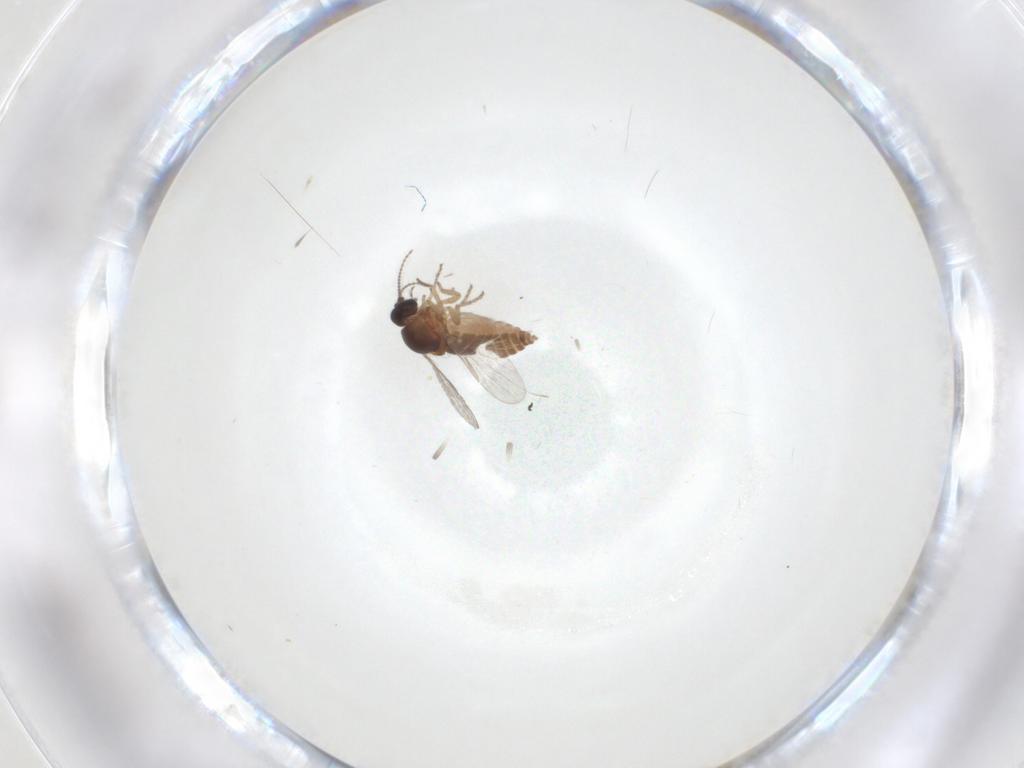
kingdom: Animalia
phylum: Arthropoda
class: Insecta
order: Diptera
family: Ceratopogonidae
